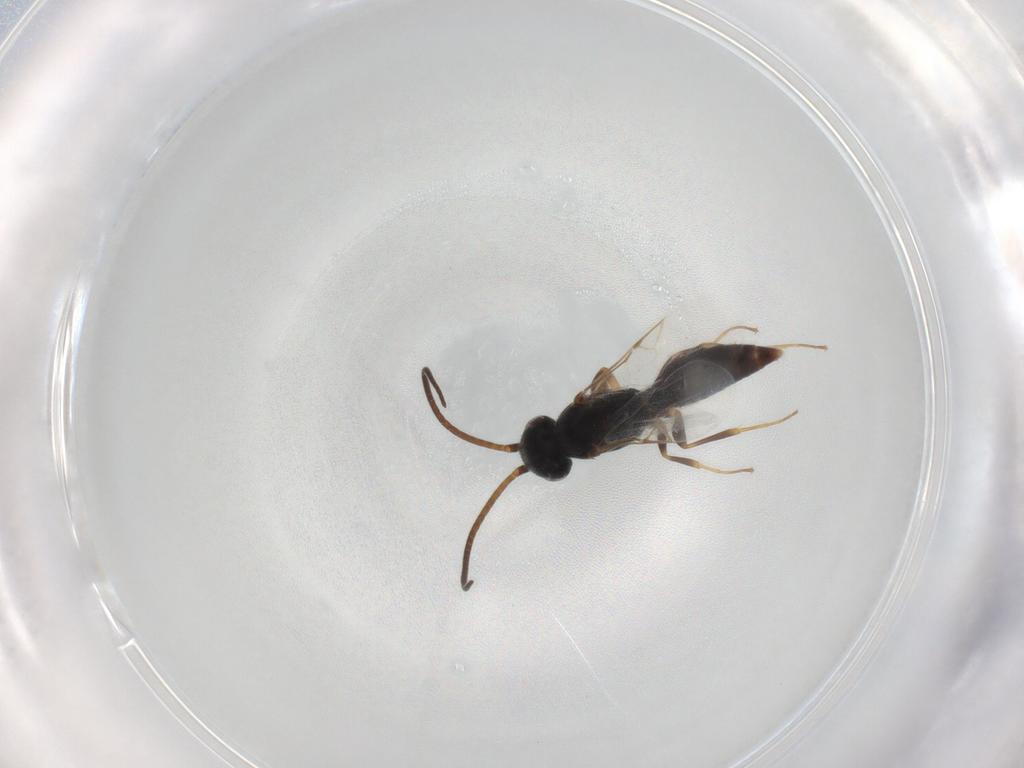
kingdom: Animalia
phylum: Arthropoda
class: Insecta
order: Hymenoptera
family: Sclerogibbidae
